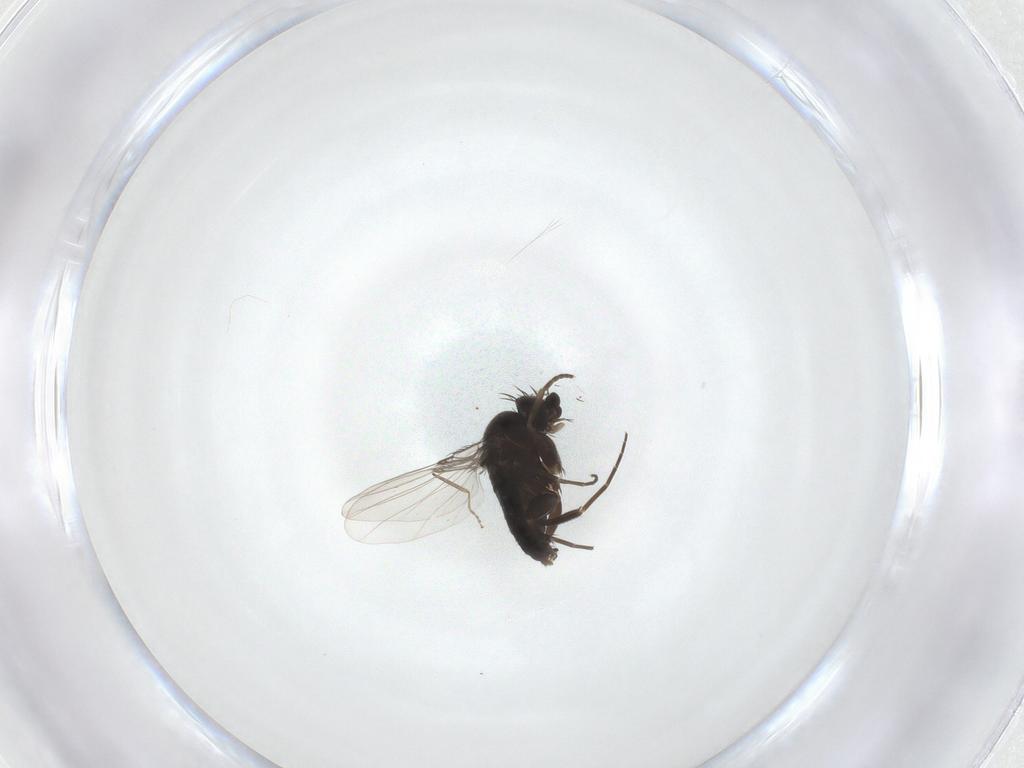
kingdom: Animalia
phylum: Arthropoda
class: Insecta
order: Diptera
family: Phoridae
